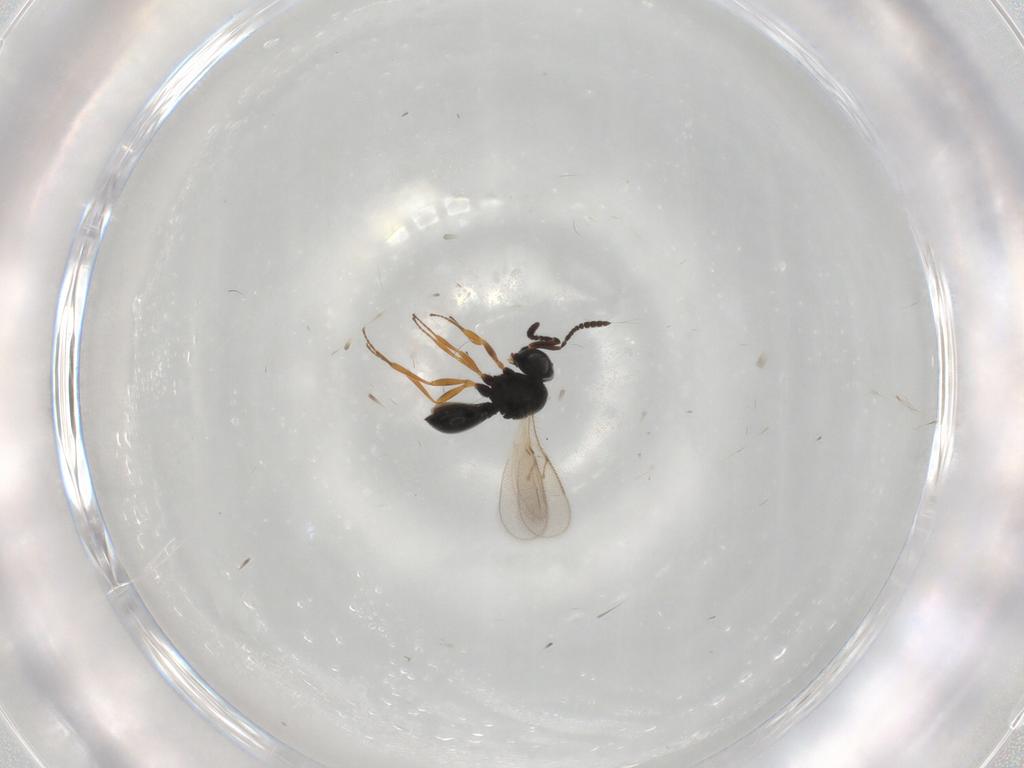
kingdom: Animalia
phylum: Arthropoda
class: Insecta
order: Hymenoptera
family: Scelionidae
